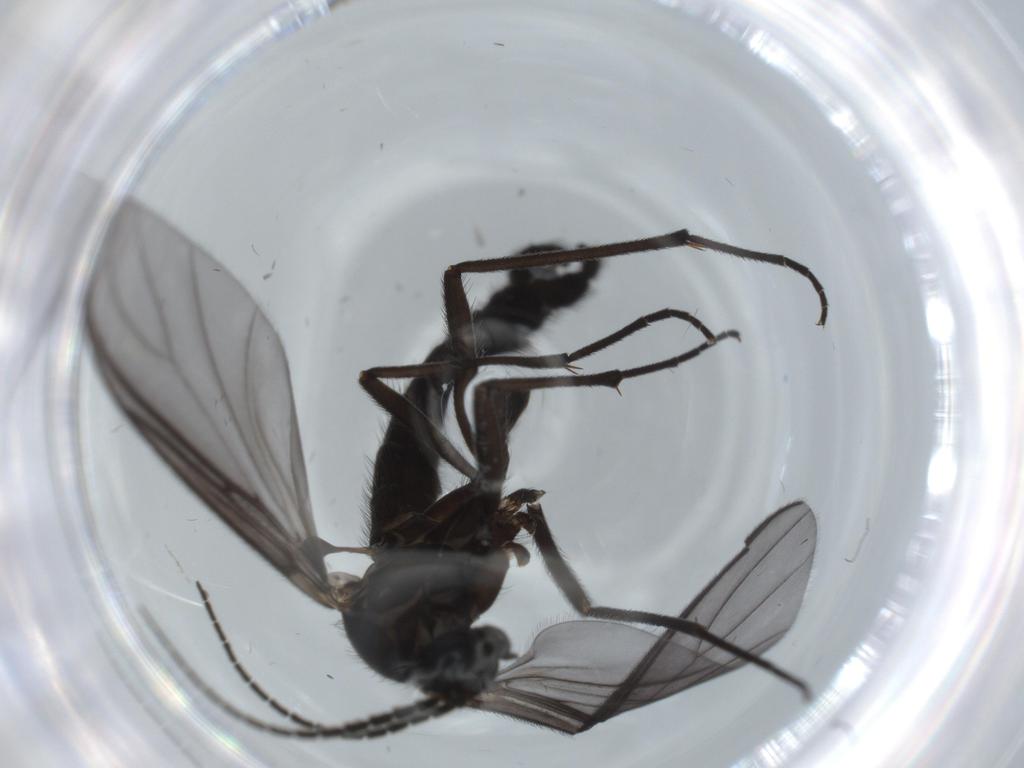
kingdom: Animalia
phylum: Arthropoda
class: Insecta
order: Diptera
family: Sciaridae
